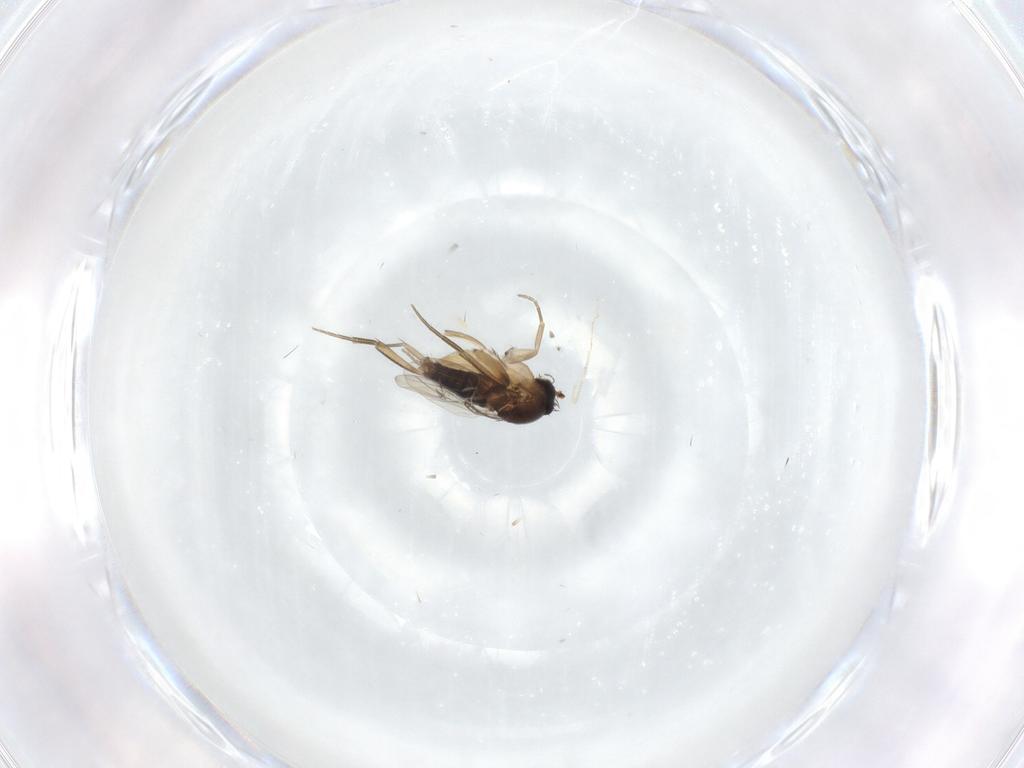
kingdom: Animalia
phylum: Arthropoda
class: Insecta
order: Diptera
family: Phoridae
